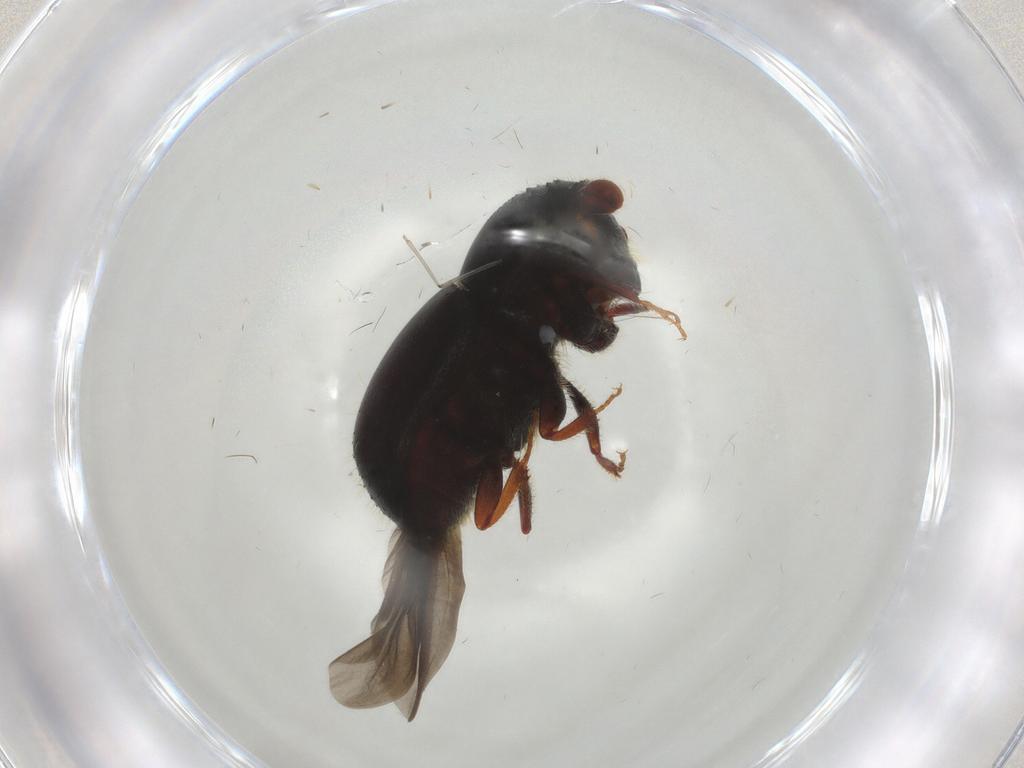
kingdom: Animalia
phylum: Arthropoda
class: Insecta
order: Coleoptera
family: Curculionidae
